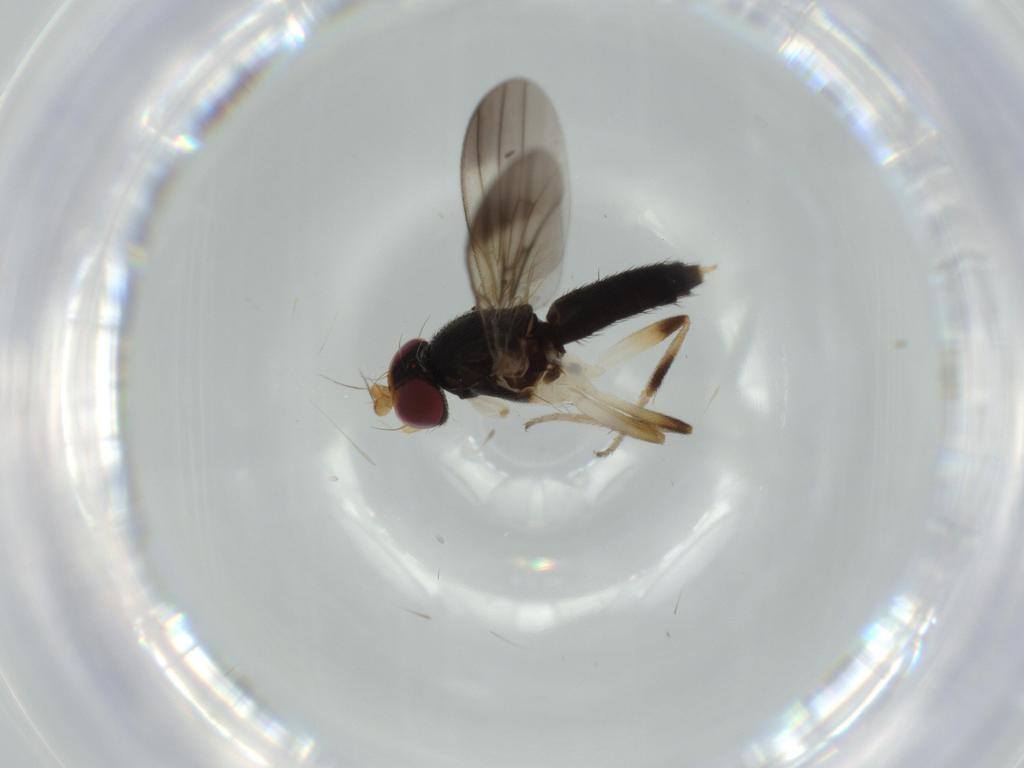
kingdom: Animalia
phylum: Arthropoda
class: Insecta
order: Diptera
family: Clusiidae
